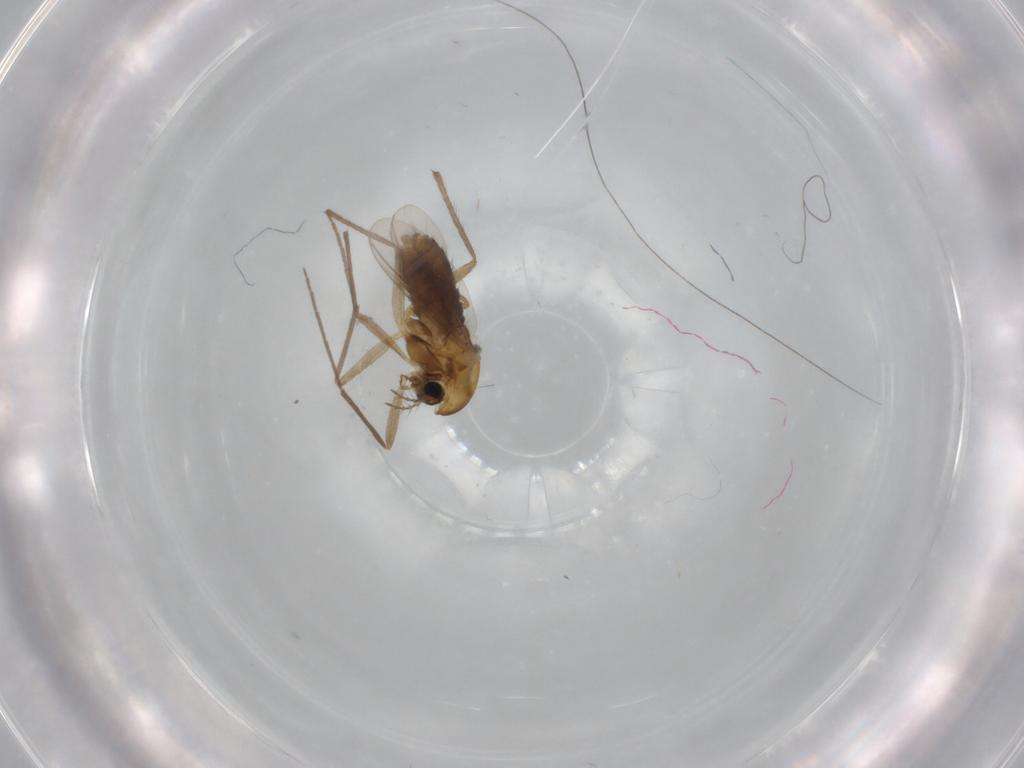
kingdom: Animalia
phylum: Arthropoda
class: Insecta
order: Diptera
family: Chironomidae
